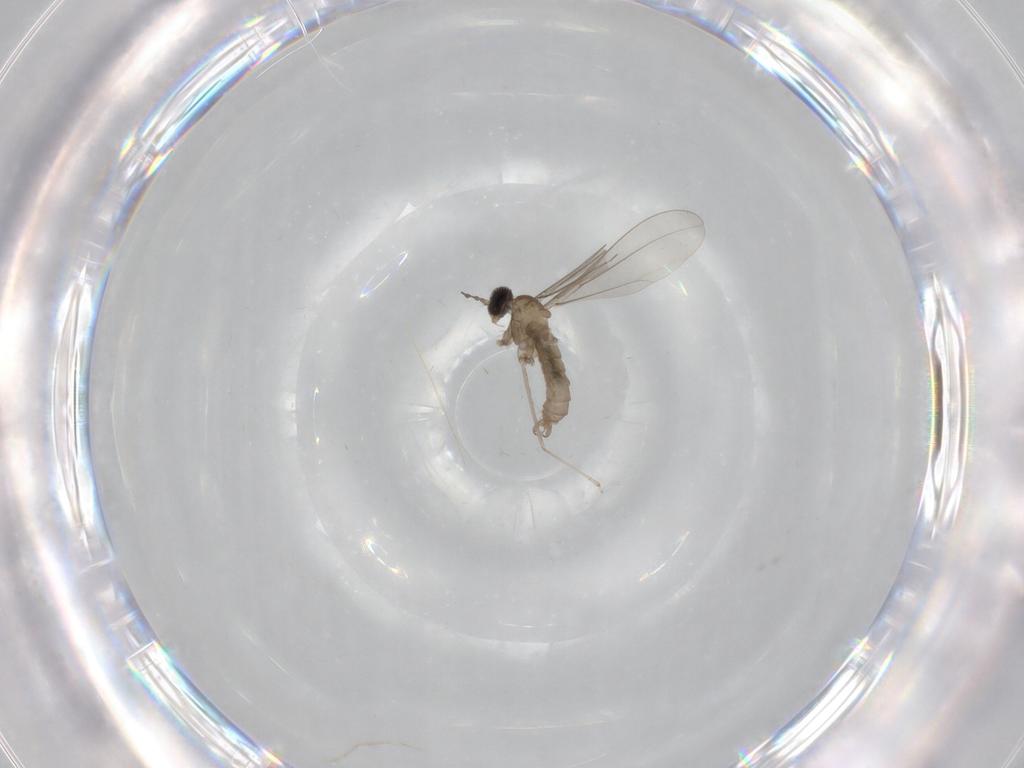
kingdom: Animalia
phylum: Arthropoda
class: Insecta
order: Diptera
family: Cecidomyiidae
